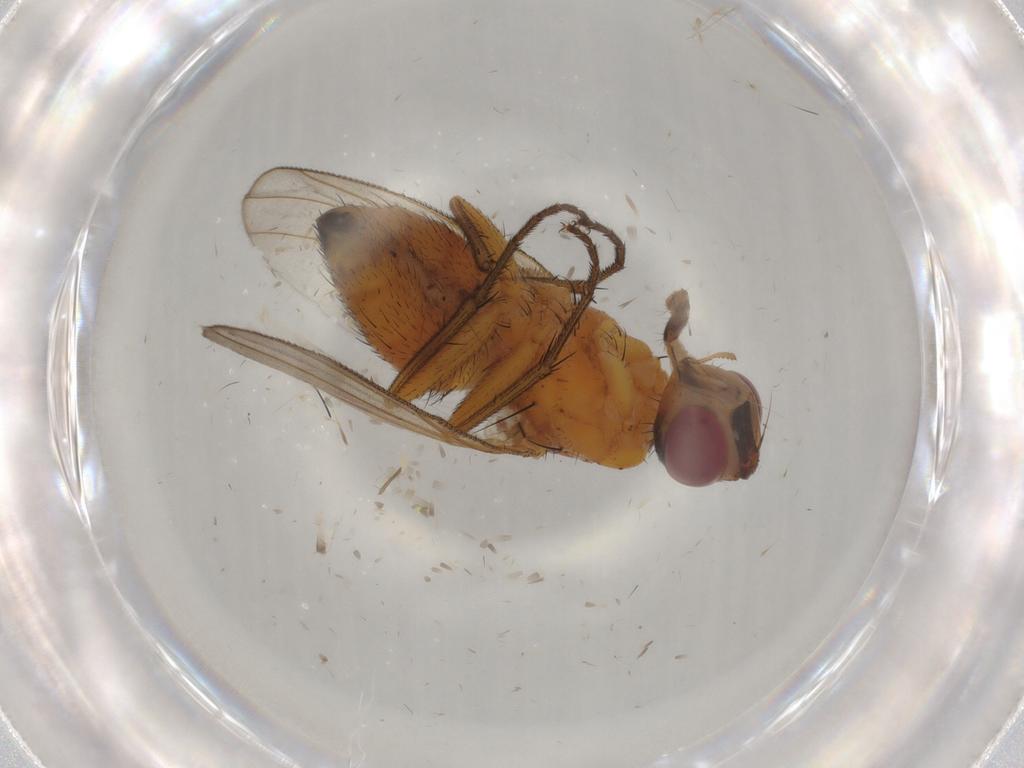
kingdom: Animalia
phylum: Arthropoda
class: Insecta
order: Diptera
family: Cecidomyiidae
